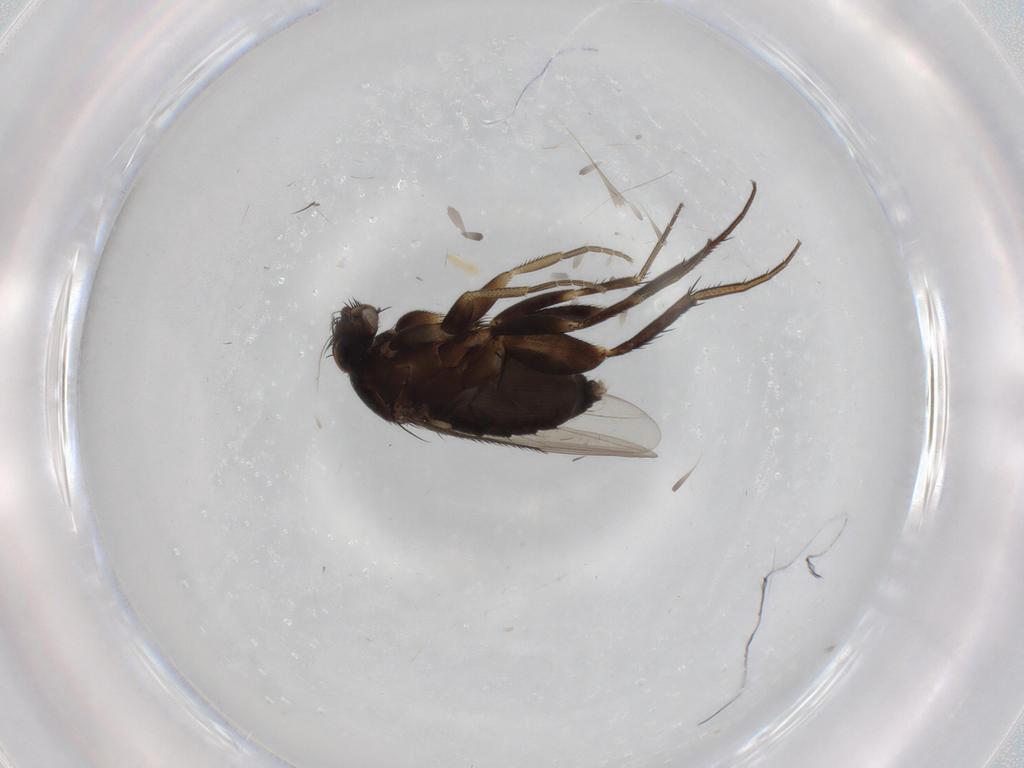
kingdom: Animalia
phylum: Arthropoda
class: Insecta
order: Diptera
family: Phoridae
